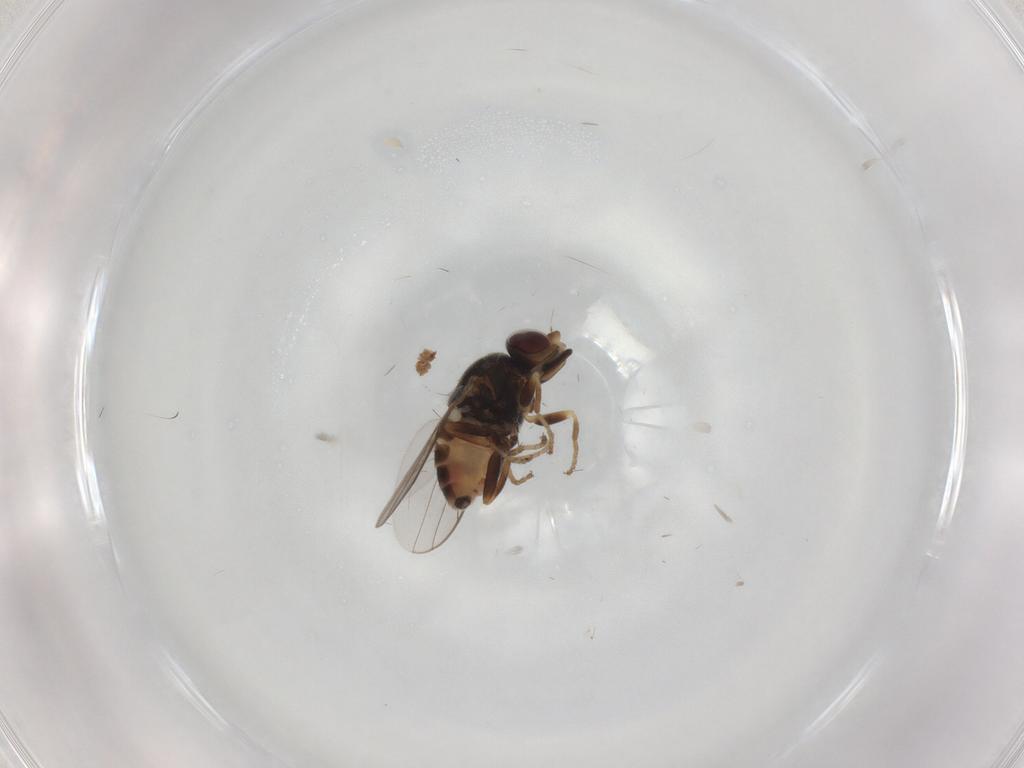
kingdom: Animalia
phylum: Arthropoda
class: Insecta
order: Diptera
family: Chloropidae
